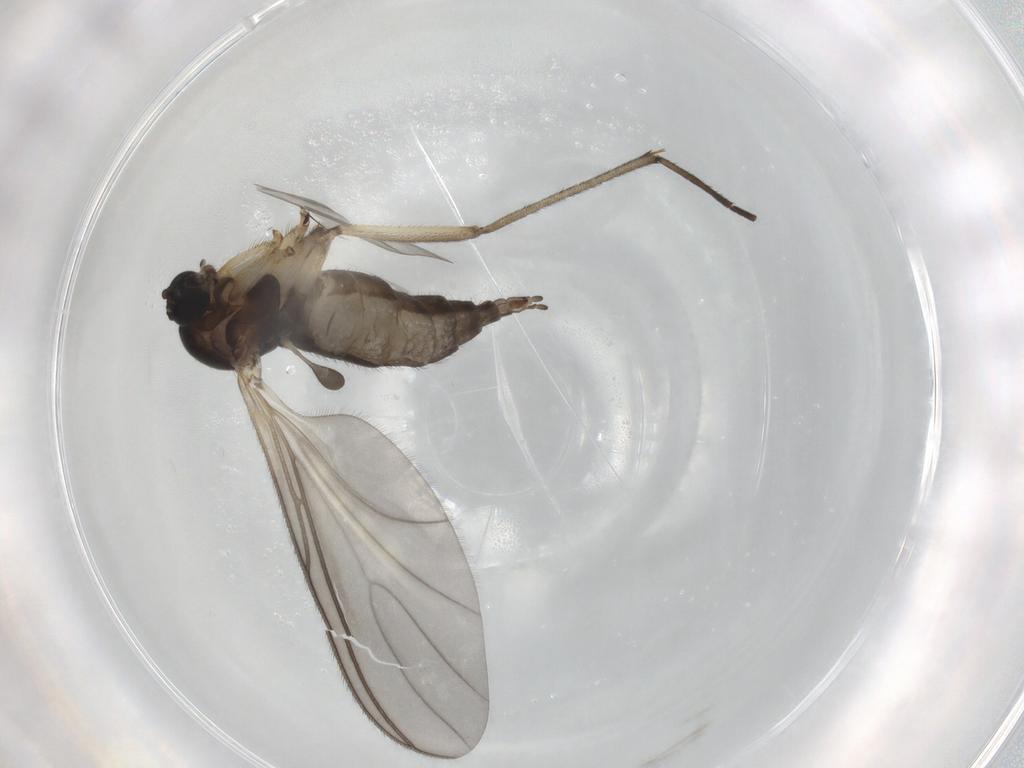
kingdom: Animalia
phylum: Arthropoda
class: Insecta
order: Diptera
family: Sciaridae
